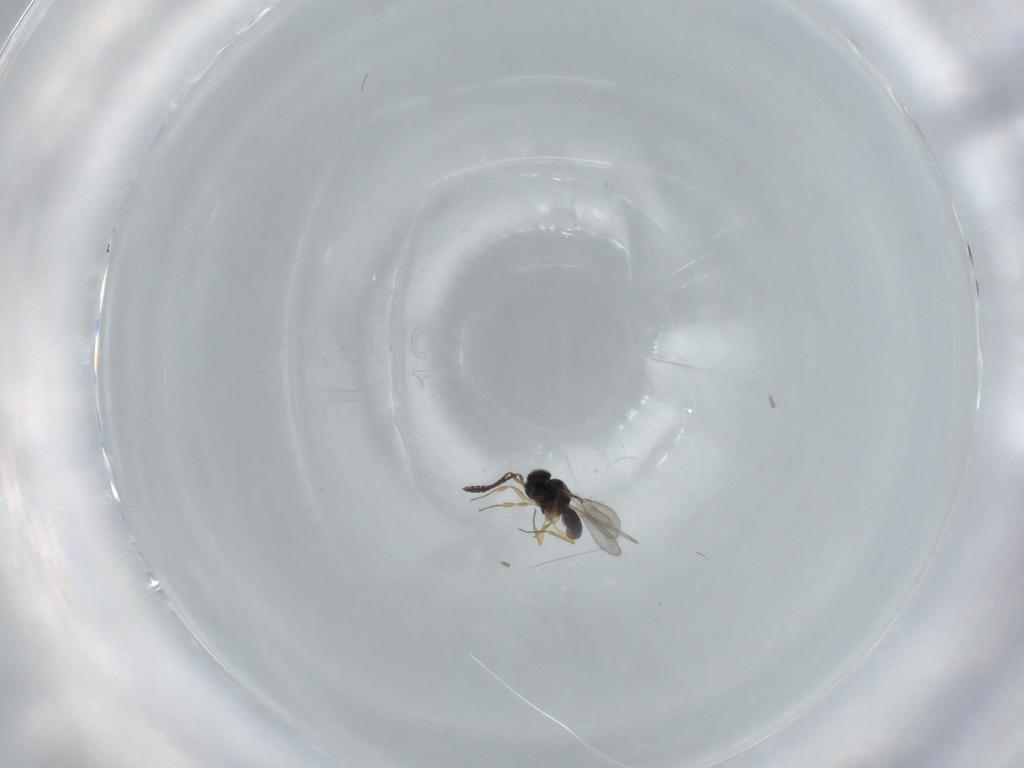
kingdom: Animalia
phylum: Arthropoda
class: Insecta
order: Hymenoptera
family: Scelionidae
